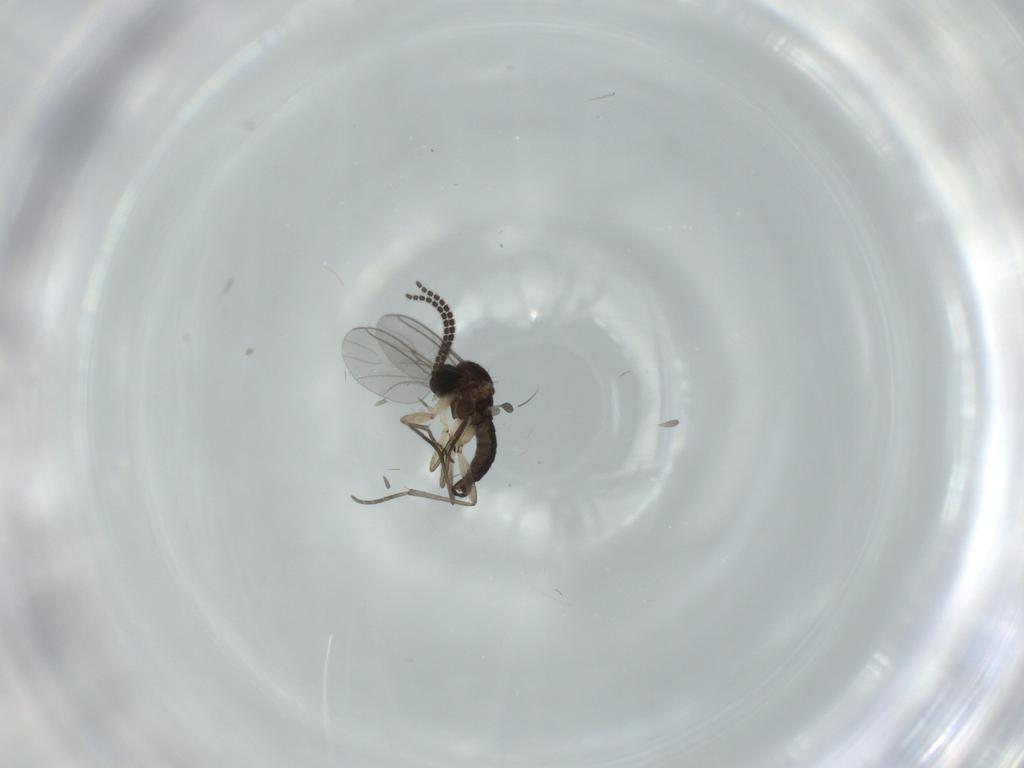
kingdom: Animalia
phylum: Arthropoda
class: Insecta
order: Diptera
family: Sciaridae
